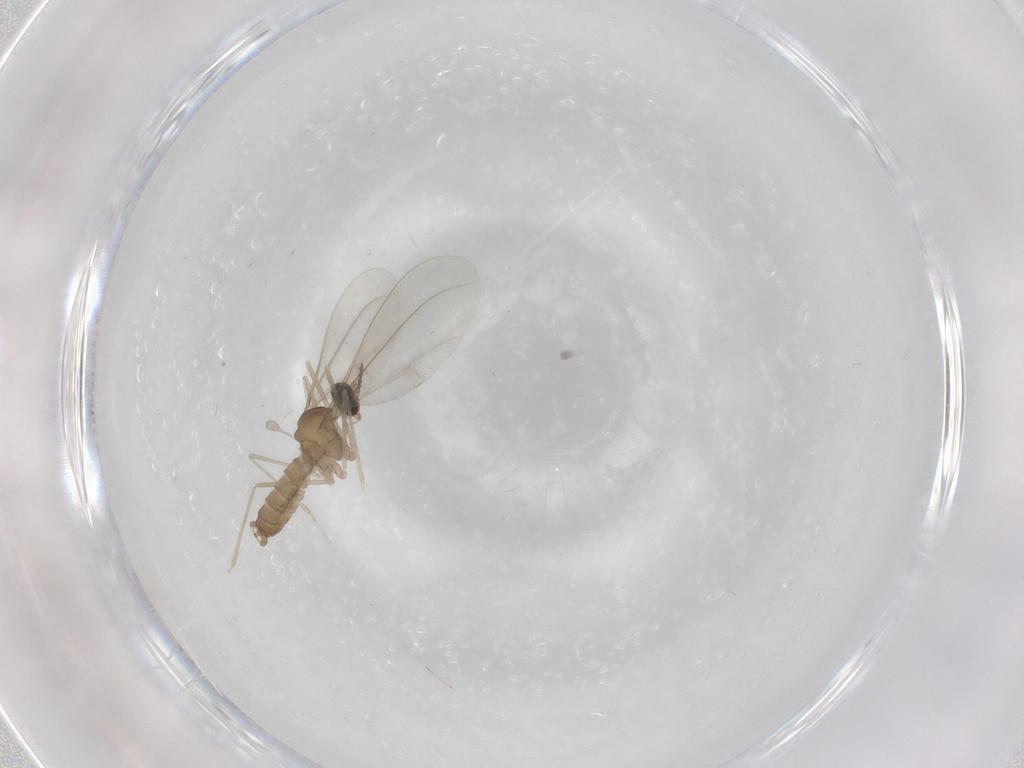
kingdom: Animalia
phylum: Arthropoda
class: Insecta
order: Diptera
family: Cecidomyiidae
